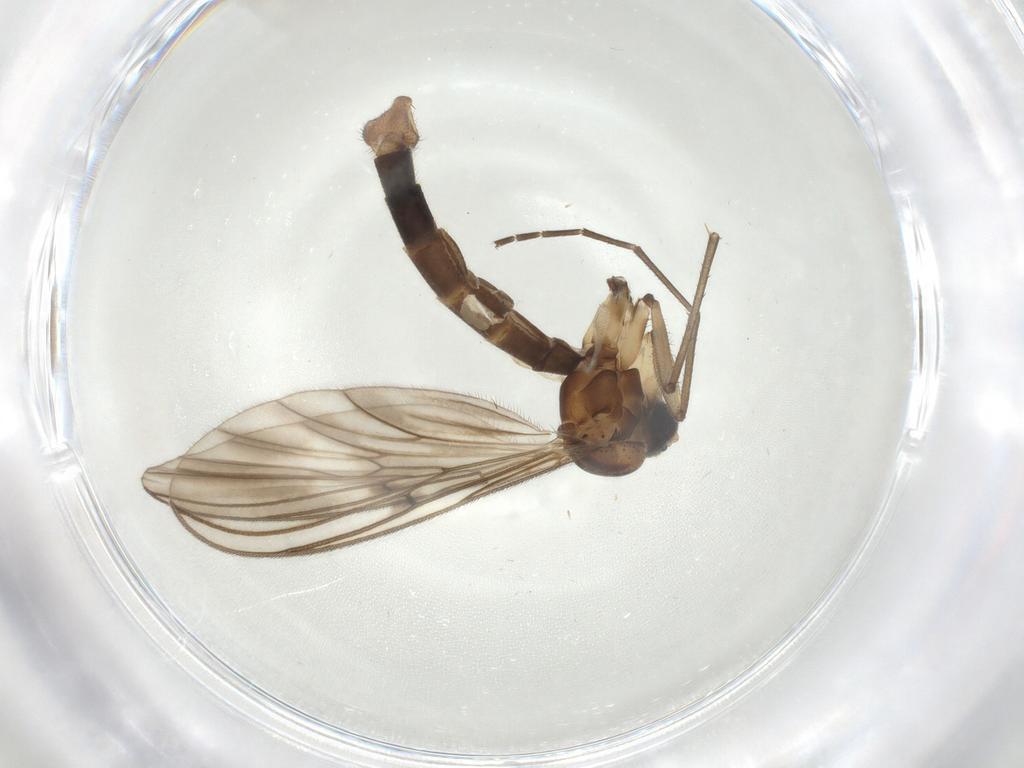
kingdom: Animalia
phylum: Arthropoda
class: Insecta
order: Diptera
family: Mycetophilidae
